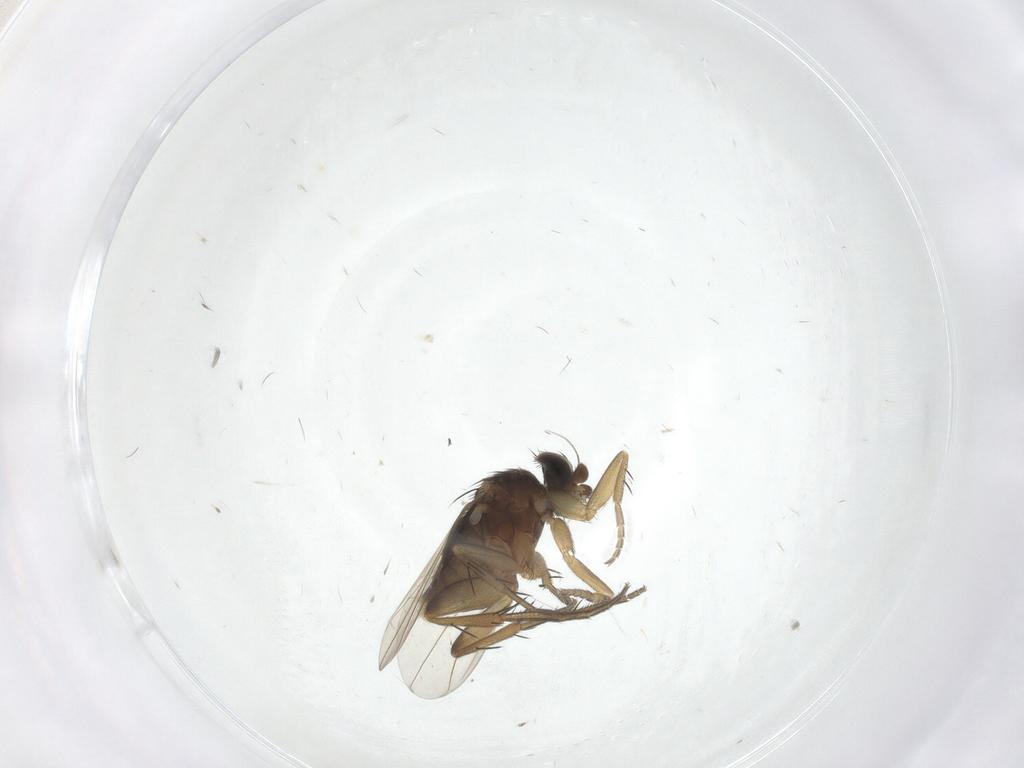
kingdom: Animalia
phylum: Arthropoda
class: Insecta
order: Diptera
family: Phoridae
